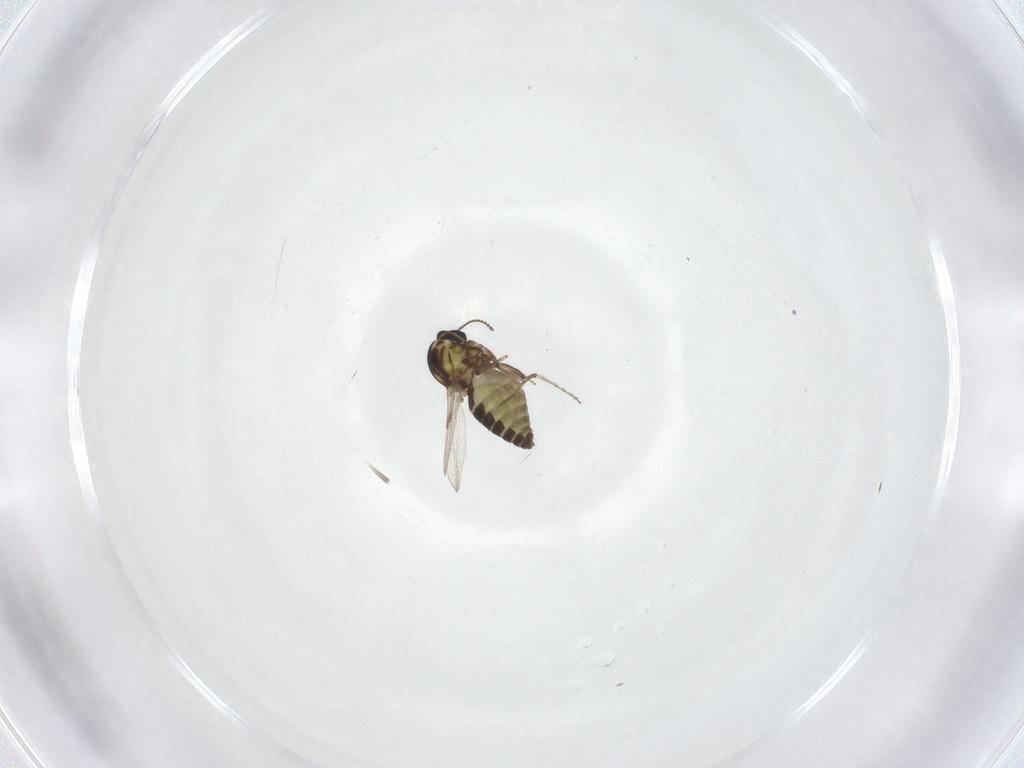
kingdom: Animalia
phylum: Arthropoda
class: Insecta
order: Diptera
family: Ceratopogonidae
